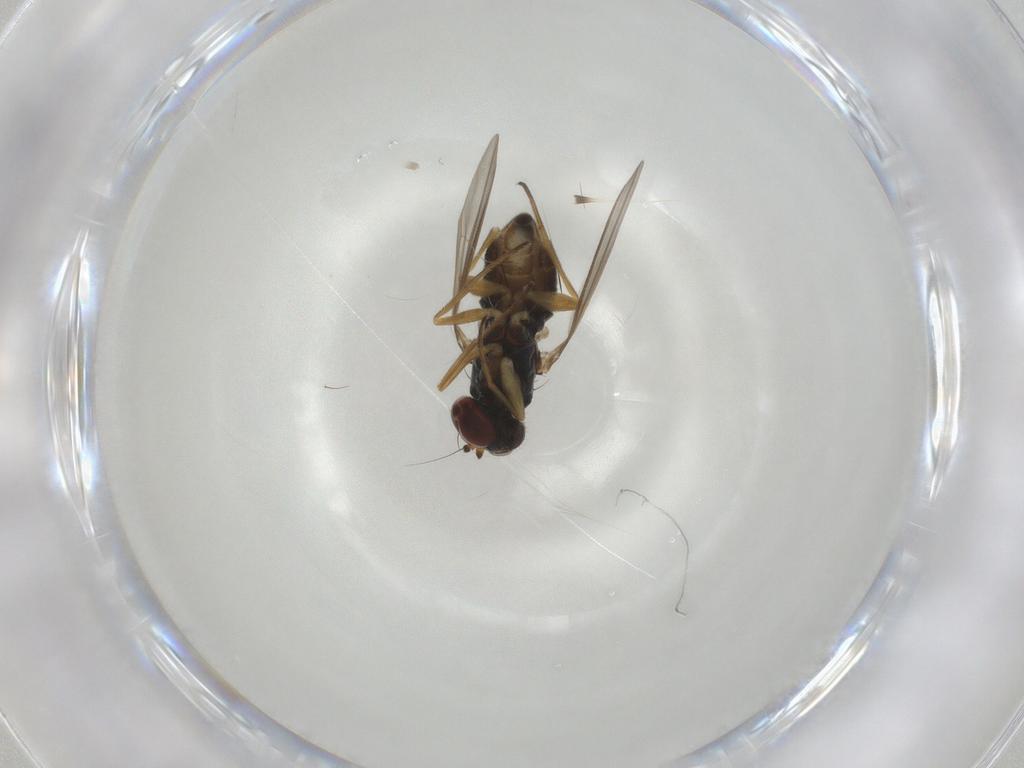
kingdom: Animalia
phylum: Arthropoda
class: Insecta
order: Diptera
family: Dolichopodidae
